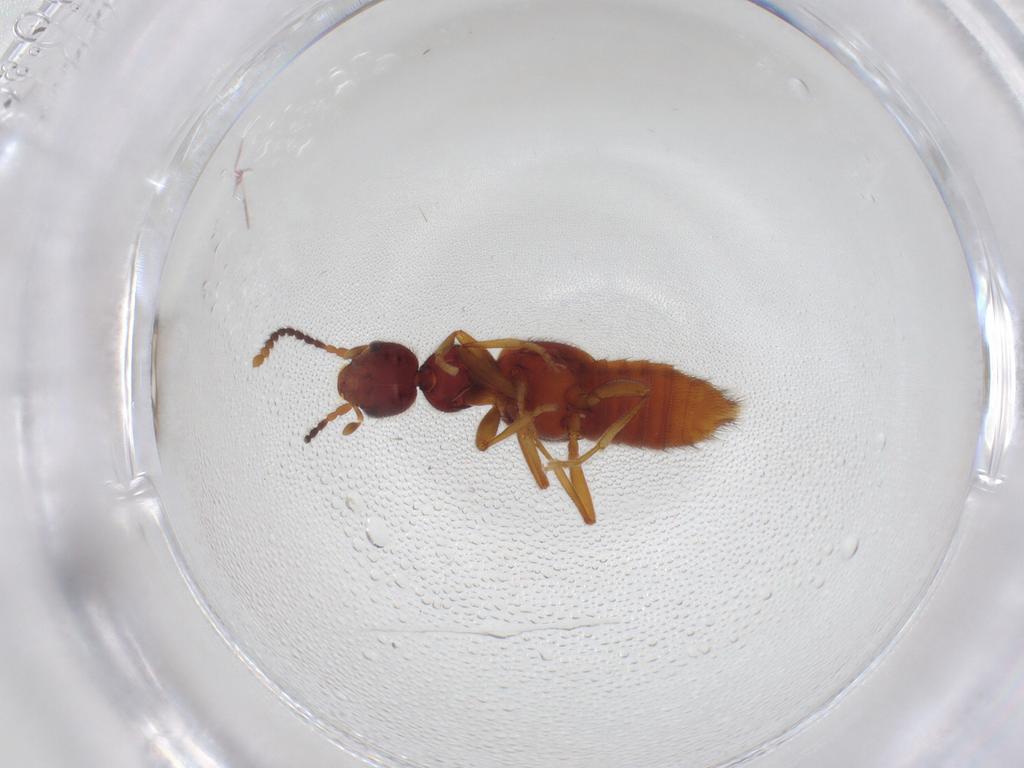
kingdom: Animalia
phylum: Arthropoda
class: Insecta
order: Coleoptera
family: Staphylinidae
